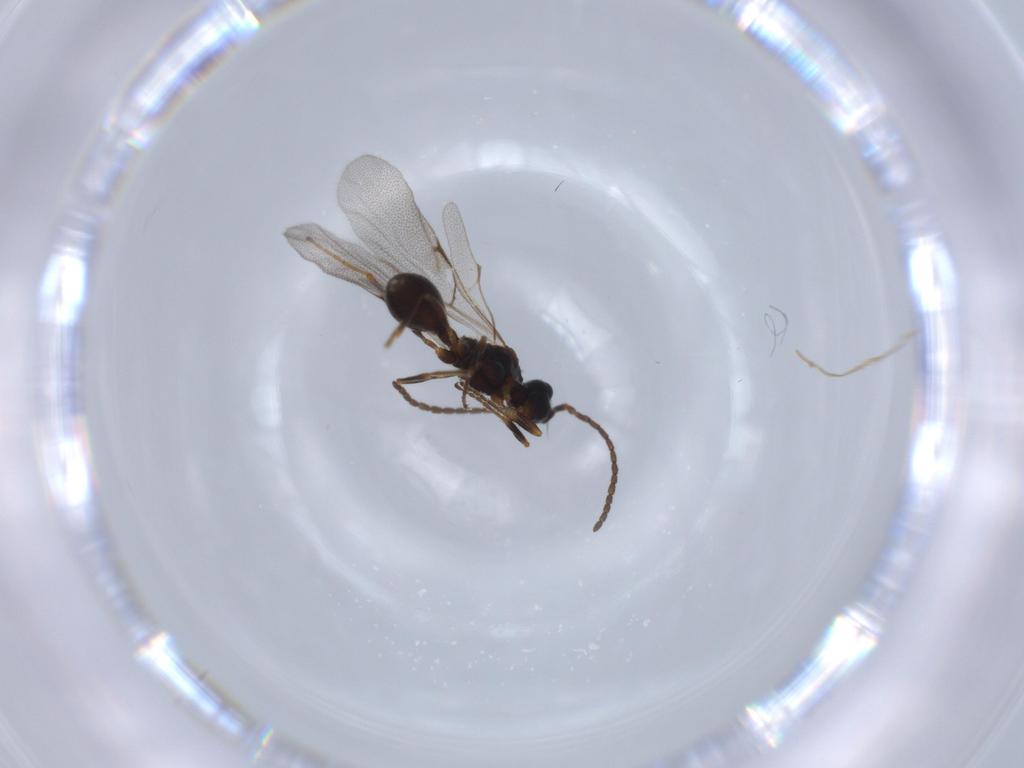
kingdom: Animalia
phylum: Arthropoda
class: Insecta
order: Hymenoptera
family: Diapriidae
